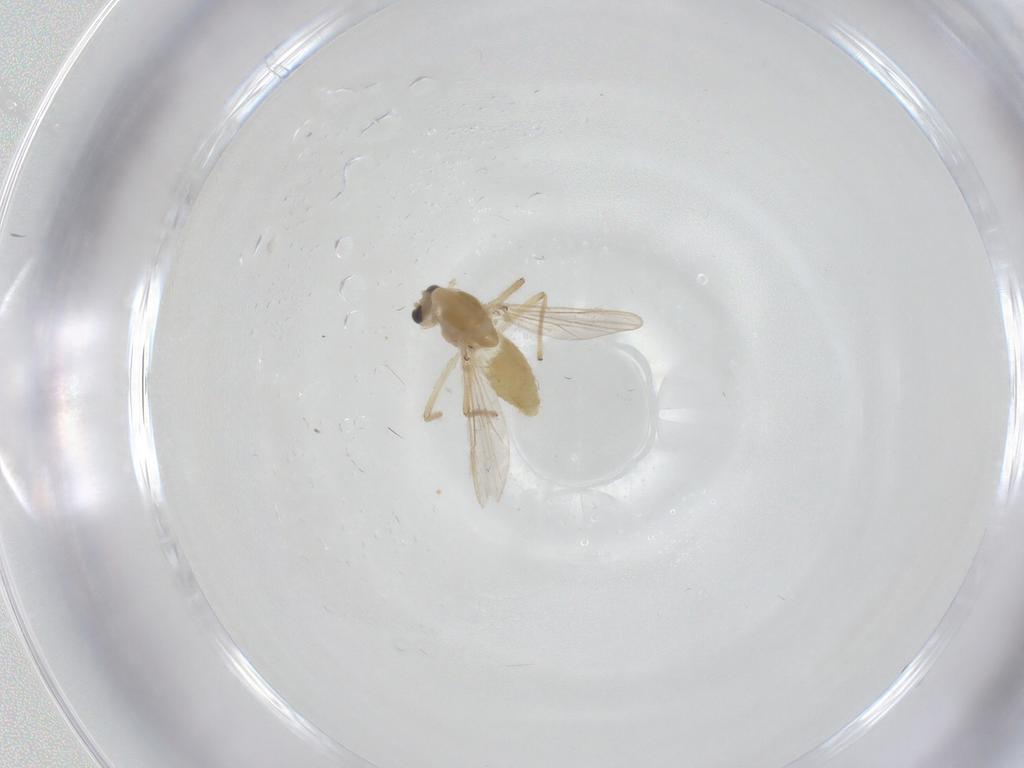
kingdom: Animalia
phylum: Arthropoda
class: Insecta
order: Diptera
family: Chironomidae
